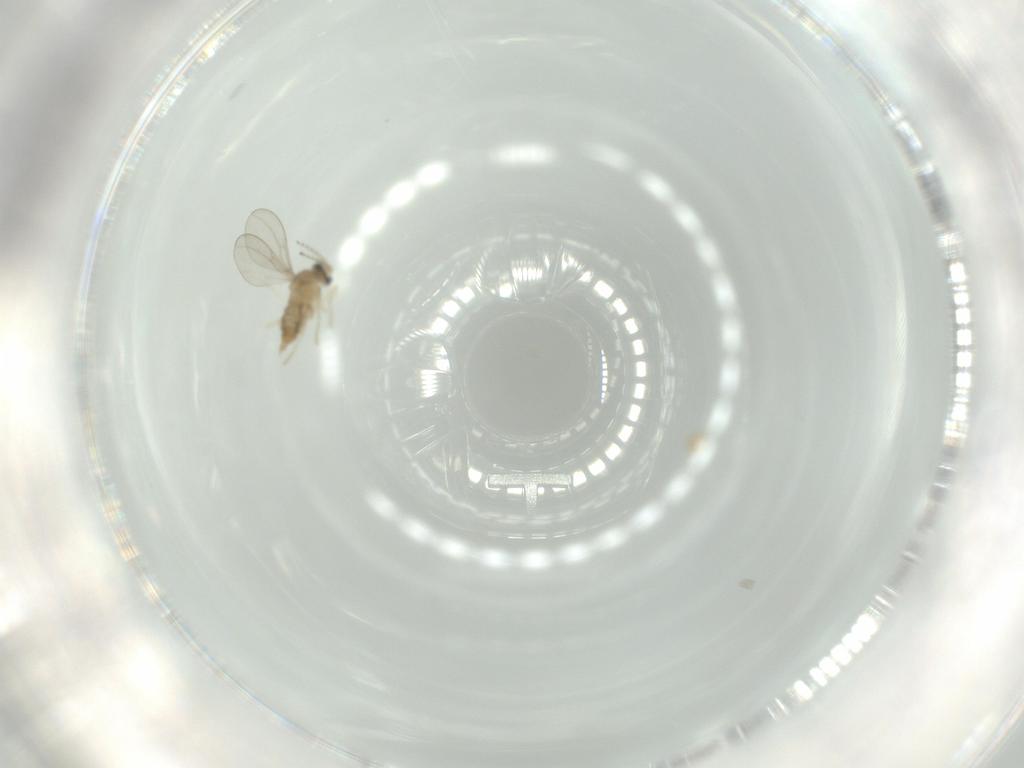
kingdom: Animalia
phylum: Arthropoda
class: Insecta
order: Diptera
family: Cecidomyiidae
